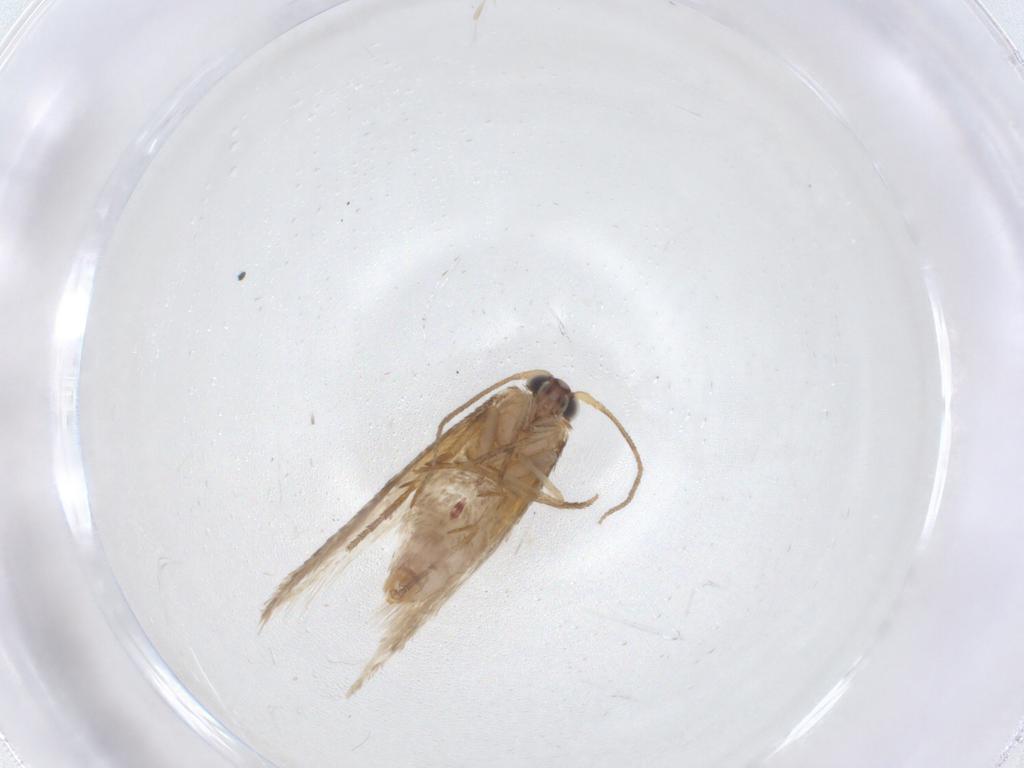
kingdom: Animalia
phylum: Arthropoda
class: Insecta
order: Lepidoptera
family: Nepticulidae
